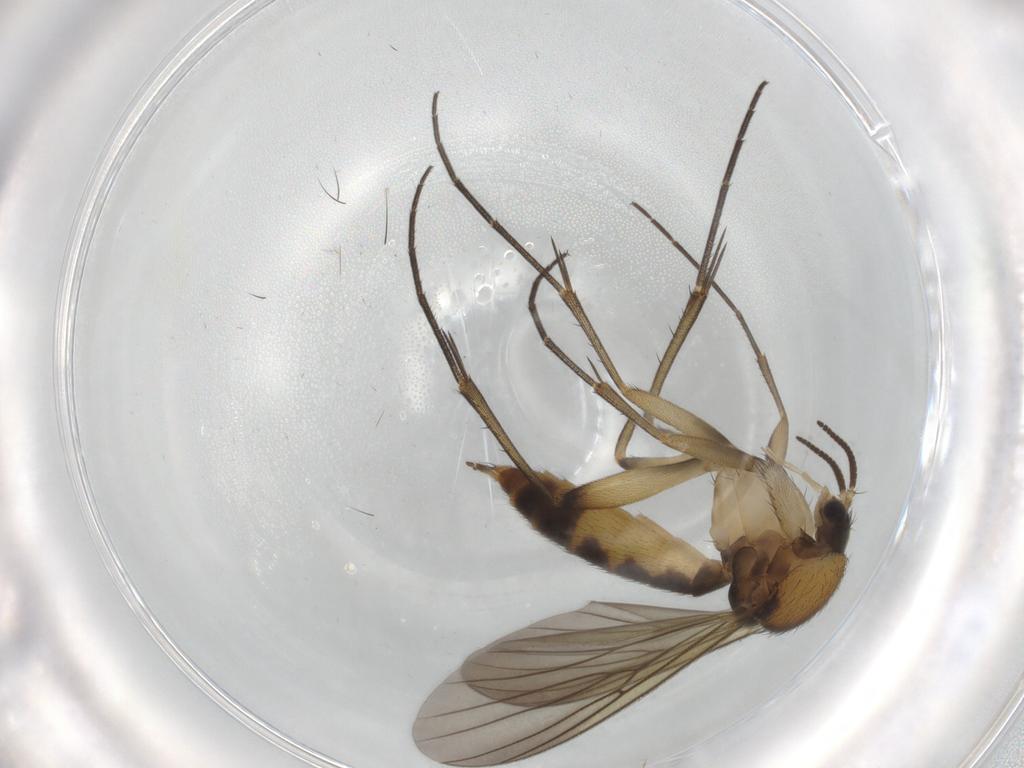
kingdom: Animalia
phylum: Arthropoda
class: Insecta
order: Diptera
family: Mycetophilidae
